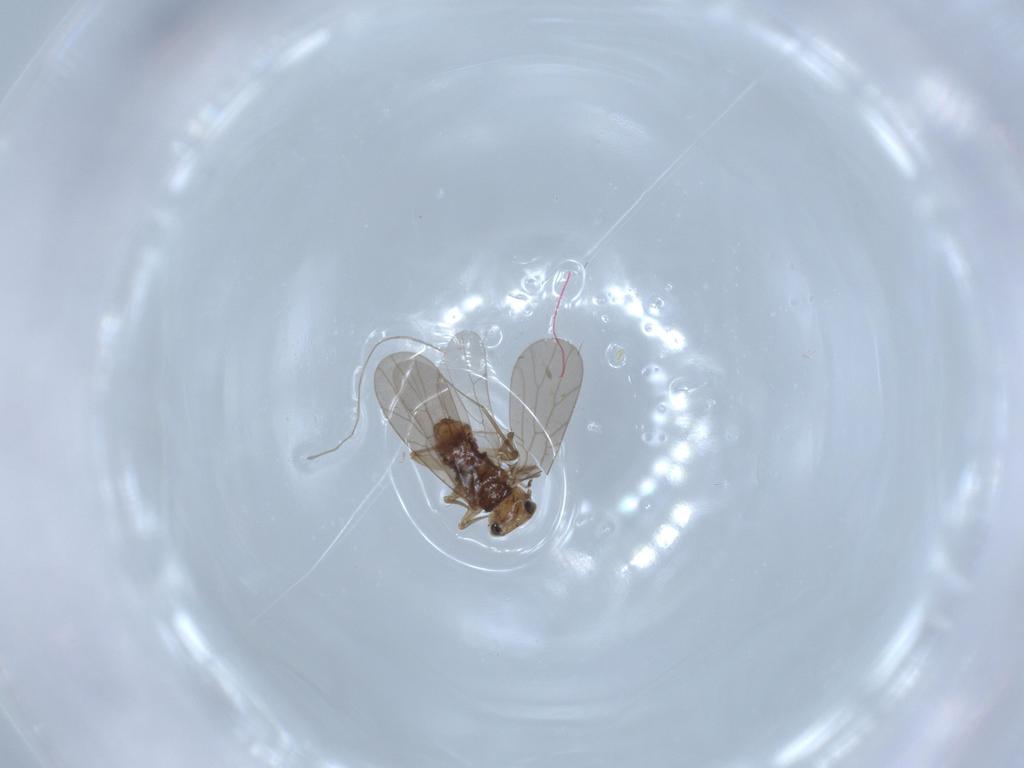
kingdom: Animalia
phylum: Arthropoda
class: Insecta
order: Psocodea
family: Lepidopsocidae
